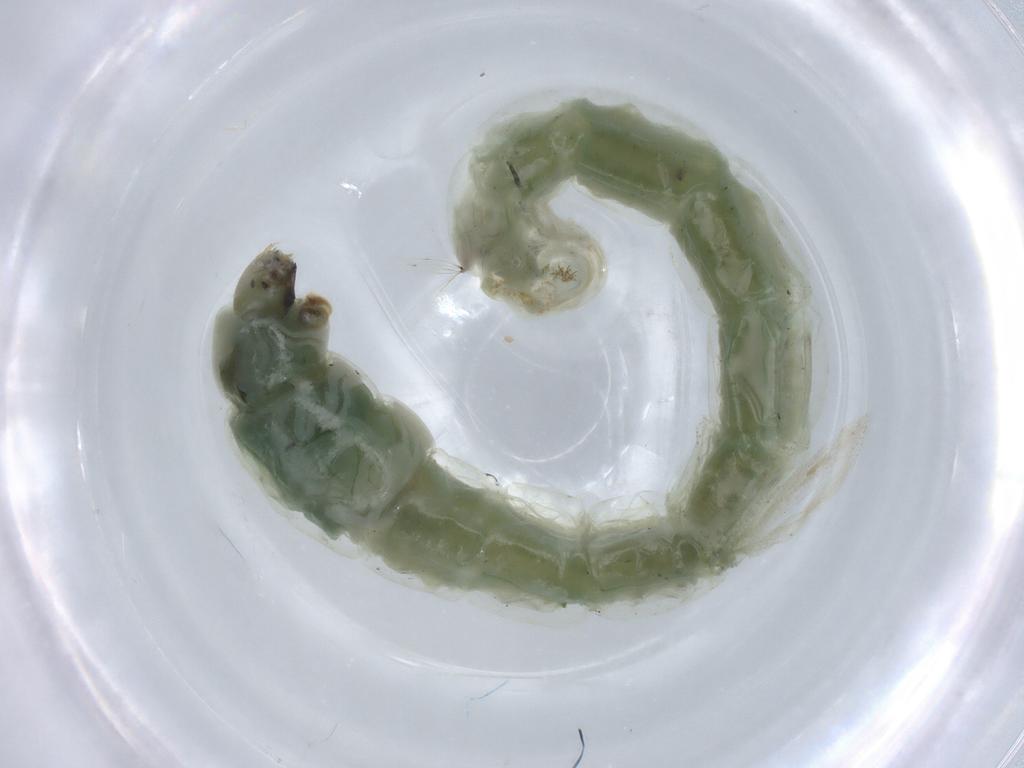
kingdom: Animalia
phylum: Arthropoda
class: Insecta
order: Diptera
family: Chironomidae
